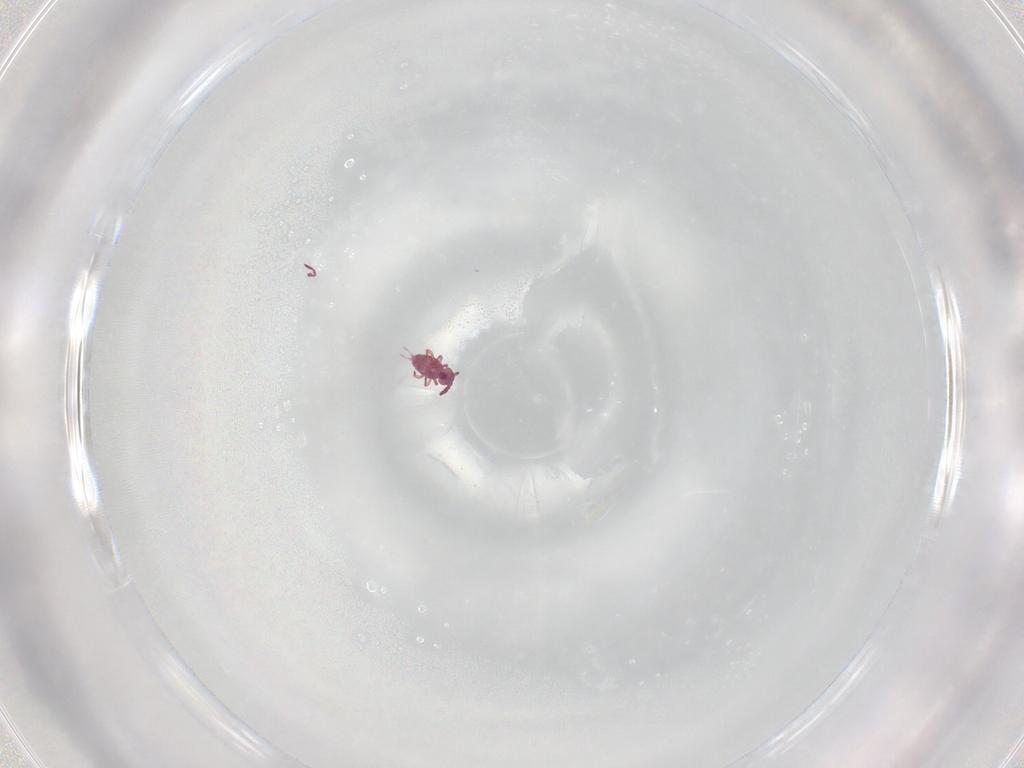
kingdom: Animalia
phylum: Arthropoda
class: Collembola
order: Symphypleona
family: Sminthurididae
